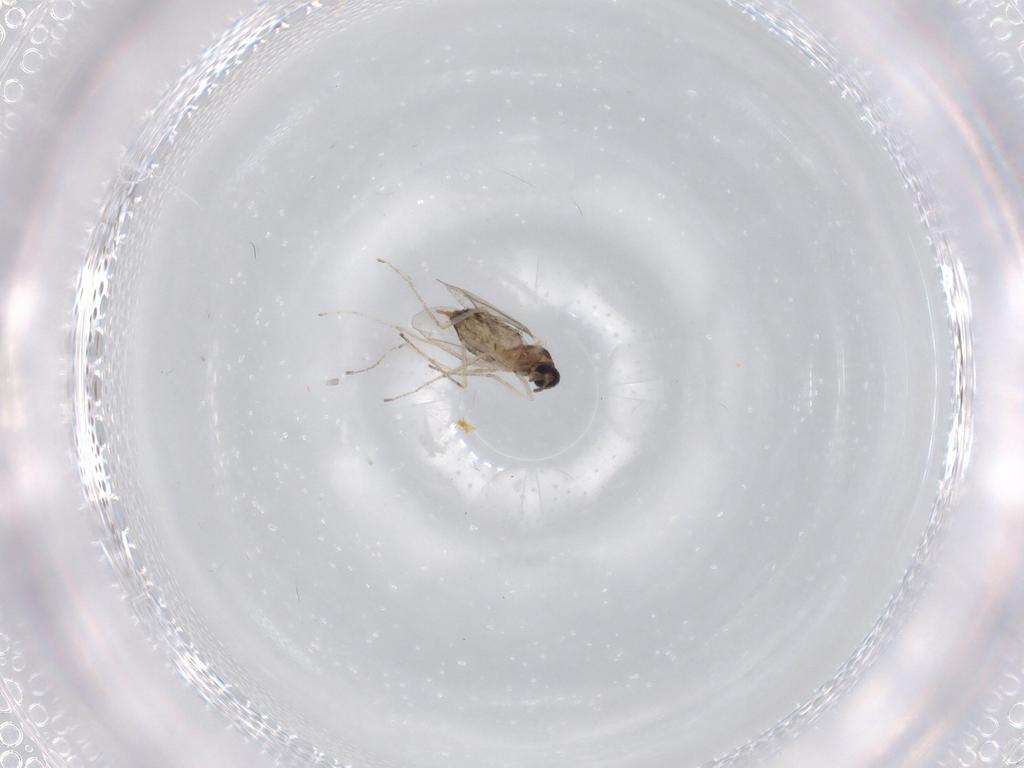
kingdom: Animalia
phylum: Arthropoda
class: Insecta
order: Diptera
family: Cecidomyiidae
